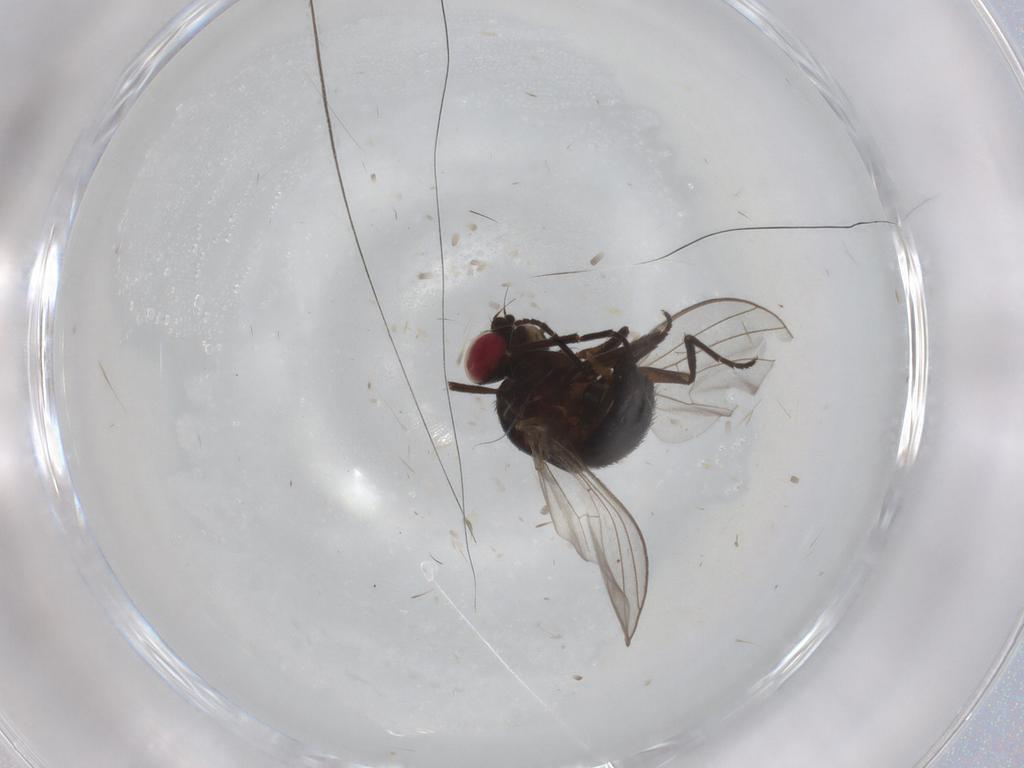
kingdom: Animalia
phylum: Arthropoda
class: Insecta
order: Diptera
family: Agromyzidae
